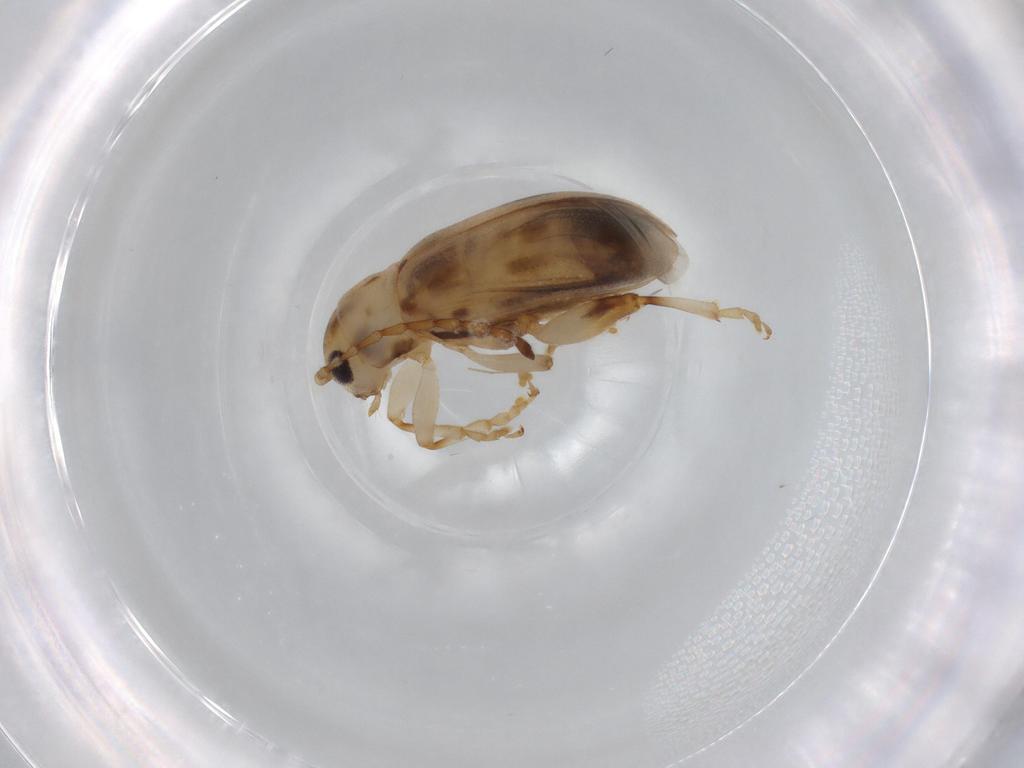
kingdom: Animalia
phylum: Arthropoda
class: Insecta
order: Coleoptera
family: Chrysomelidae
